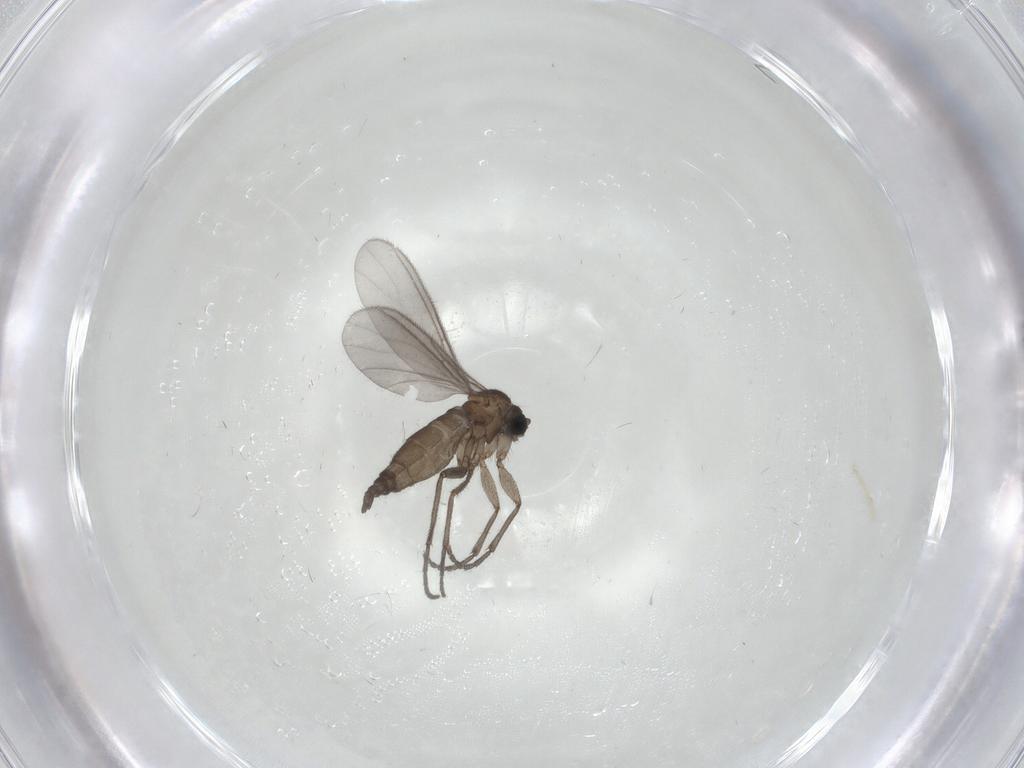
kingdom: Animalia
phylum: Arthropoda
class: Insecta
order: Diptera
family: Sciaridae
